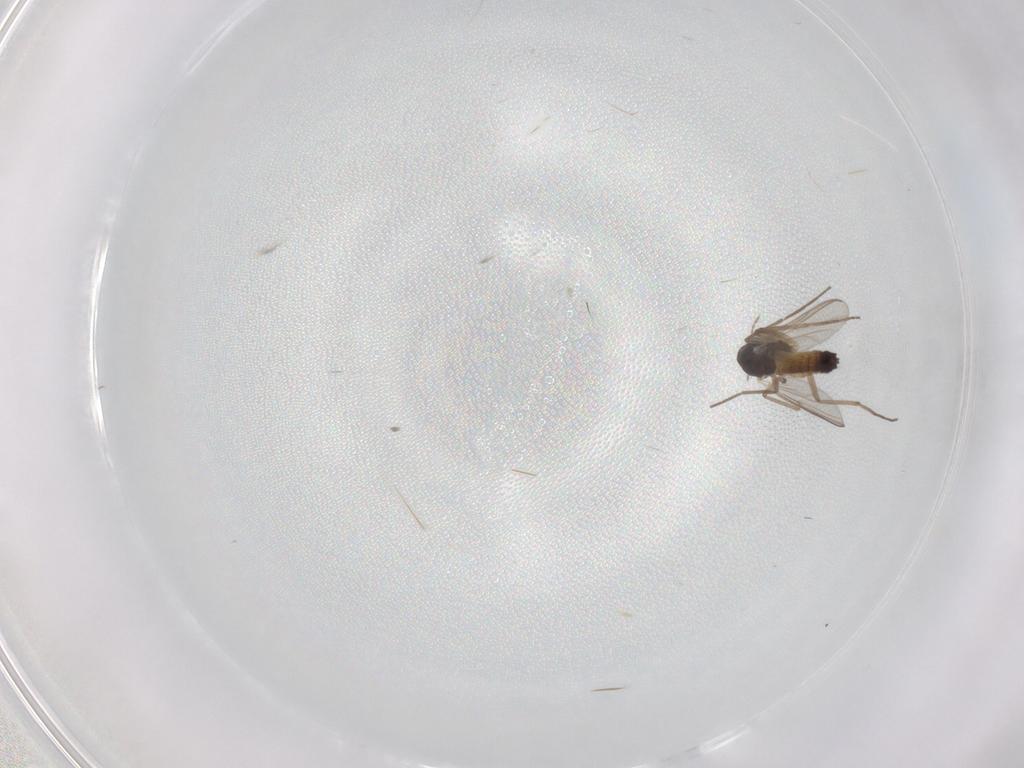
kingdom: Animalia
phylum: Arthropoda
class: Insecta
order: Diptera
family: Chironomidae
